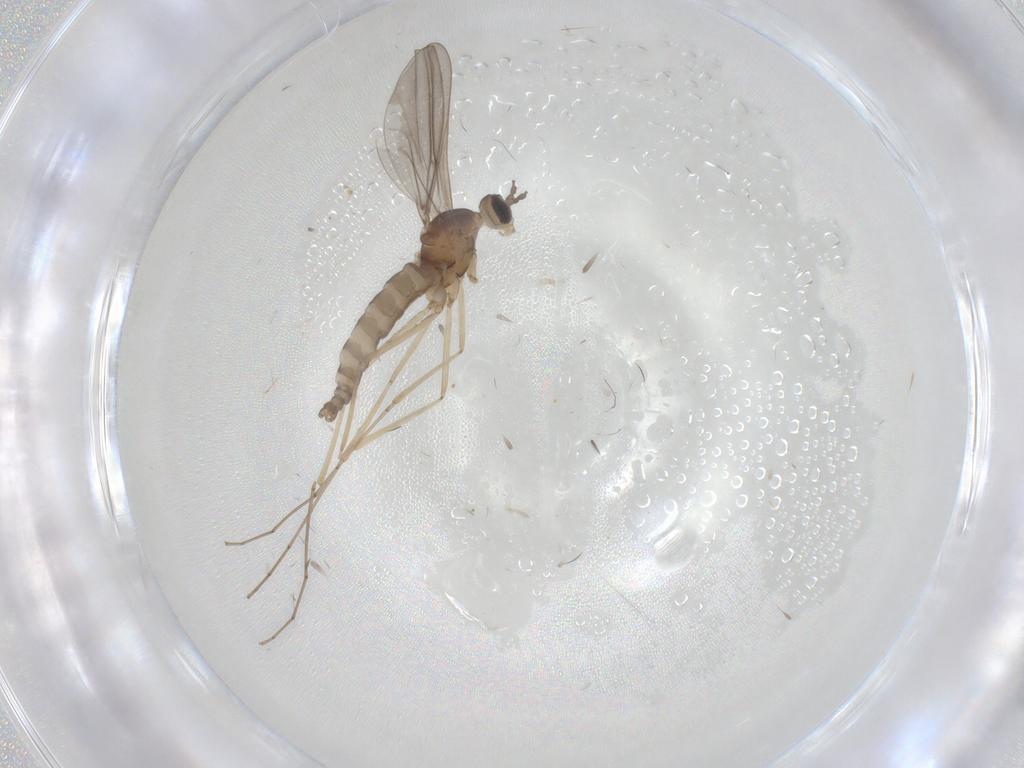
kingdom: Animalia
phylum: Arthropoda
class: Insecta
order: Diptera
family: Cecidomyiidae
